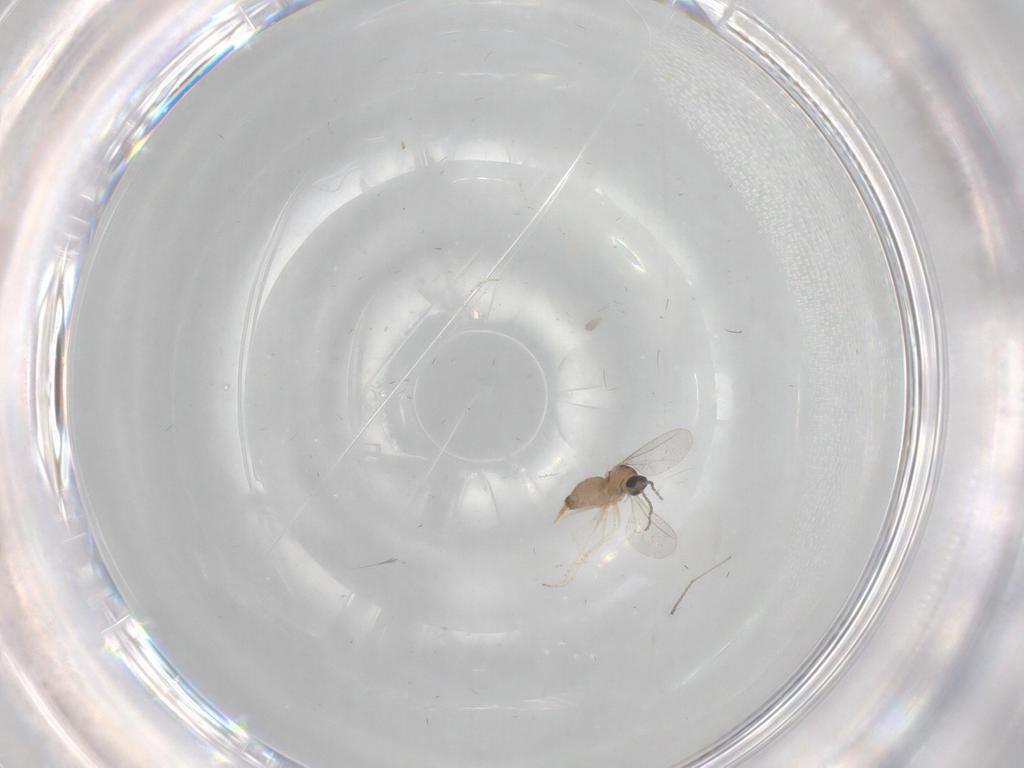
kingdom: Animalia
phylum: Arthropoda
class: Insecta
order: Diptera
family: Cecidomyiidae
